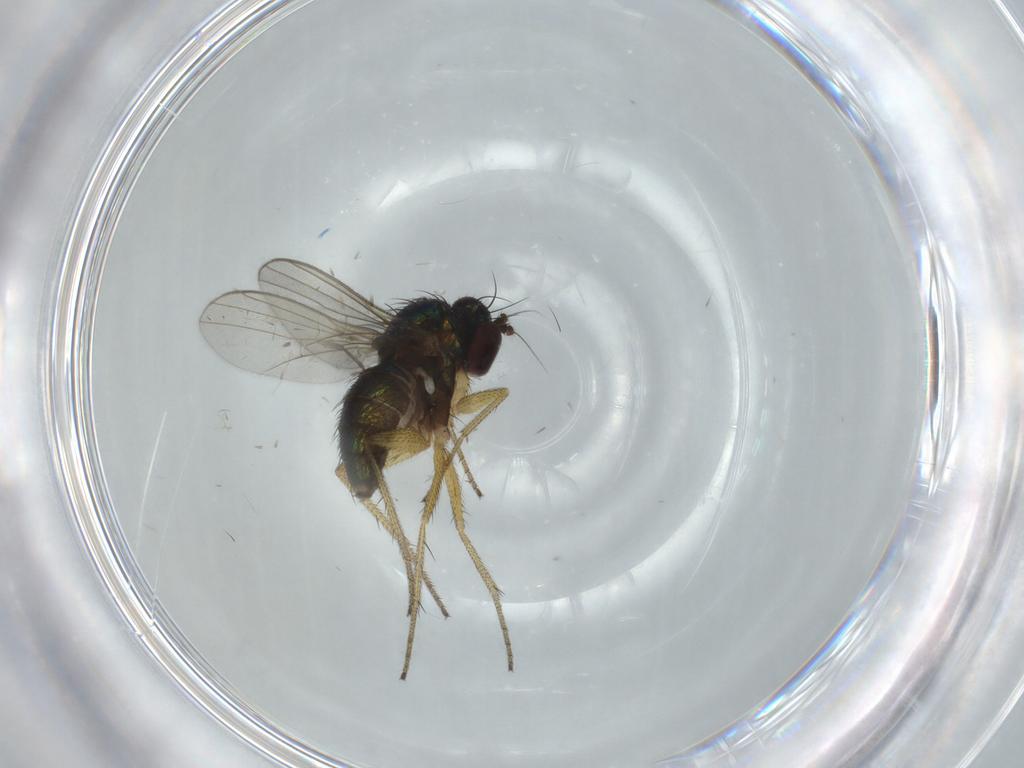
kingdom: Animalia
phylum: Arthropoda
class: Insecta
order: Diptera
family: Sciaridae
